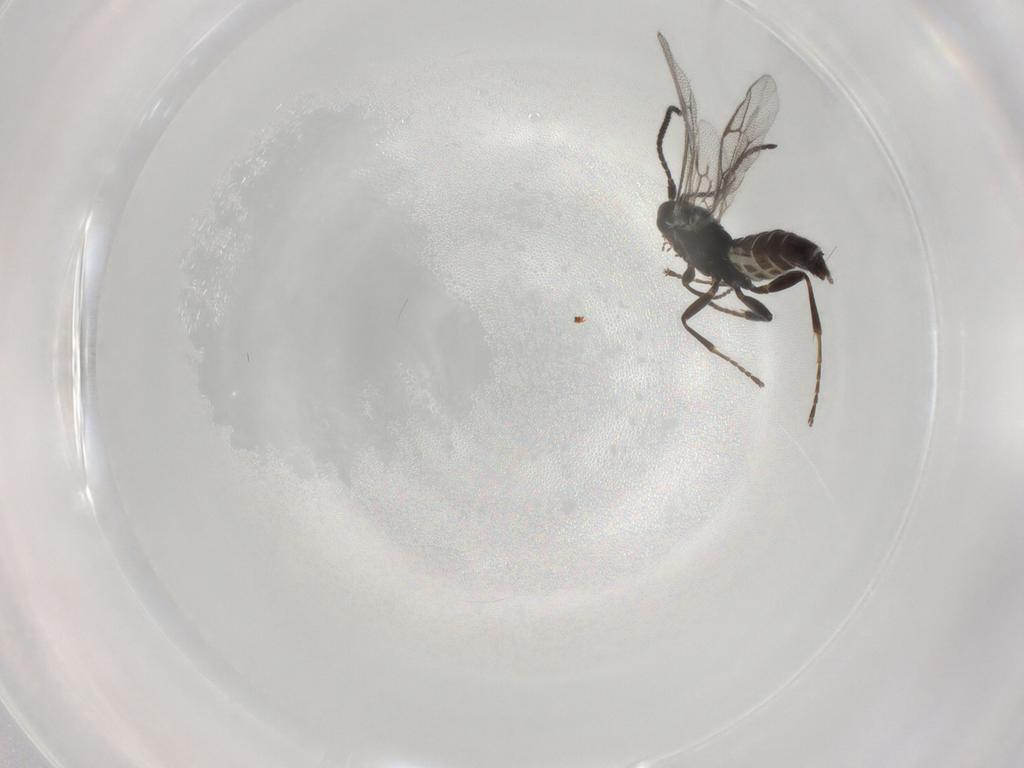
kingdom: Animalia
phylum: Arthropoda
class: Insecta
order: Hymenoptera
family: Ichneumonidae
